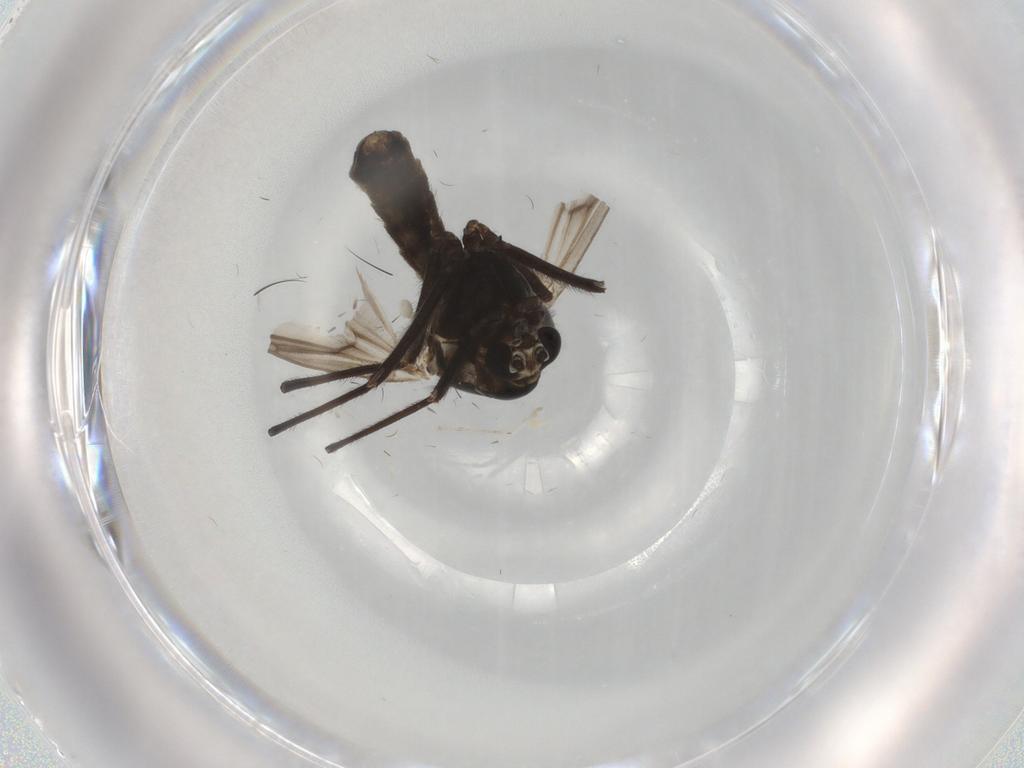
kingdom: Animalia
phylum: Arthropoda
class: Insecta
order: Diptera
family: Chironomidae
